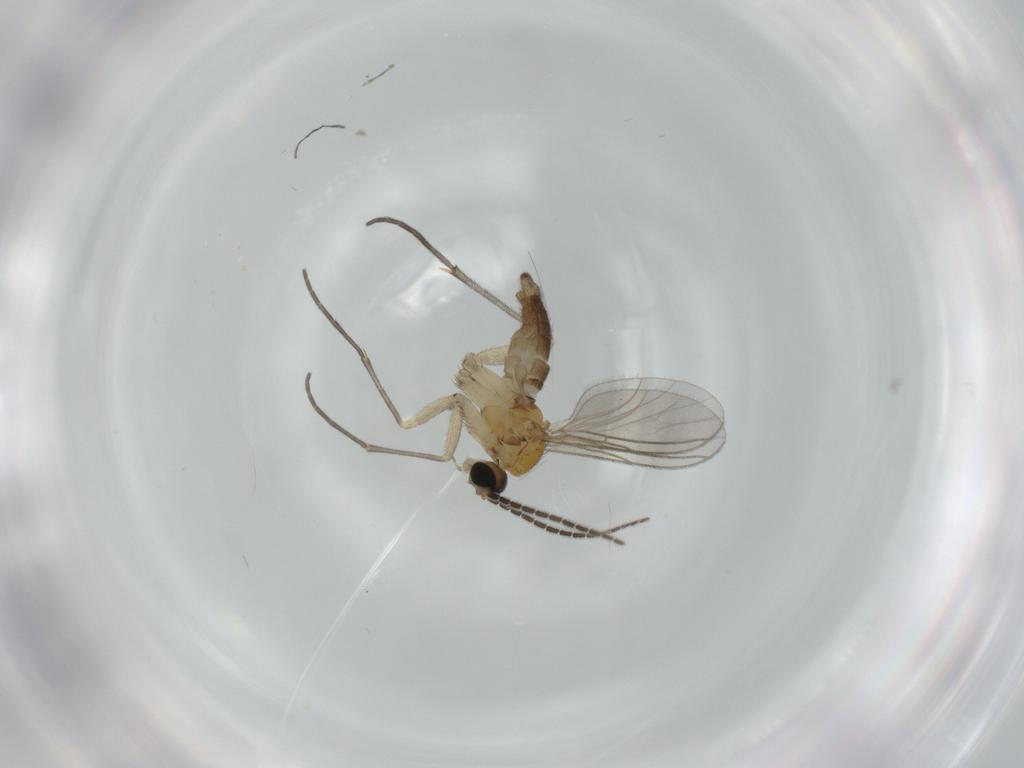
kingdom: Animalia
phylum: Arthropoda
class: Insecta
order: Diptera
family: Sciaridae
